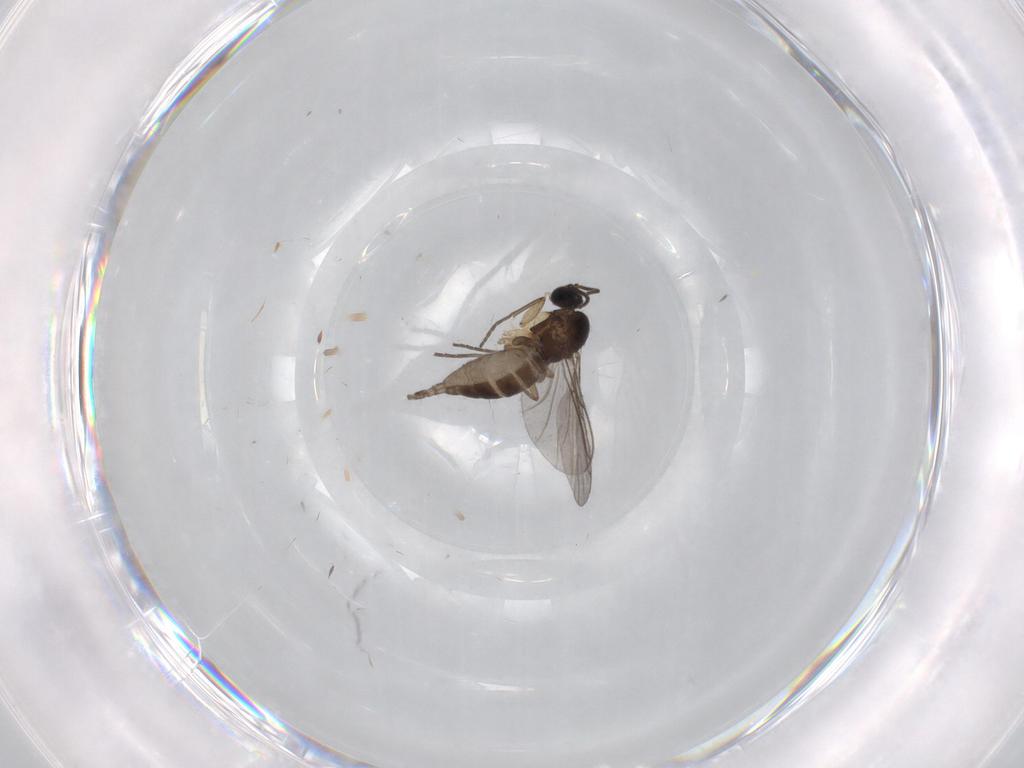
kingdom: Animalia
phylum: Arthropoda
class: Insecta
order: Diptera
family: Sciaridae
